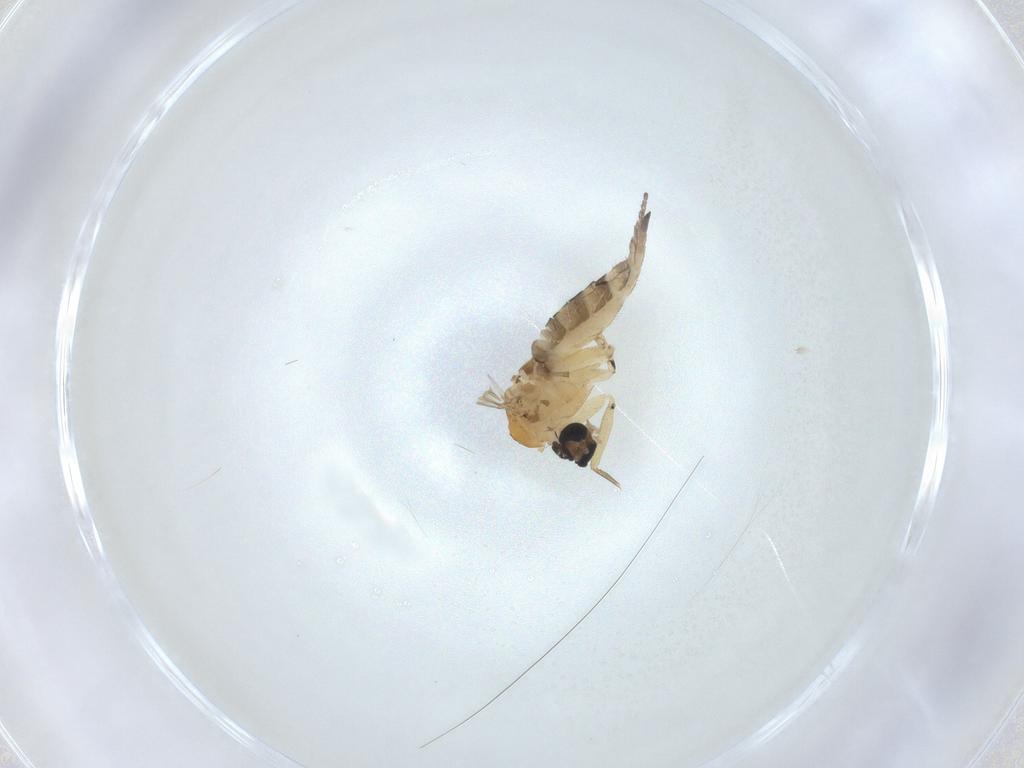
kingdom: Animalia
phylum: Arthropoda
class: Insecta
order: Diptera
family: Sciaridae
